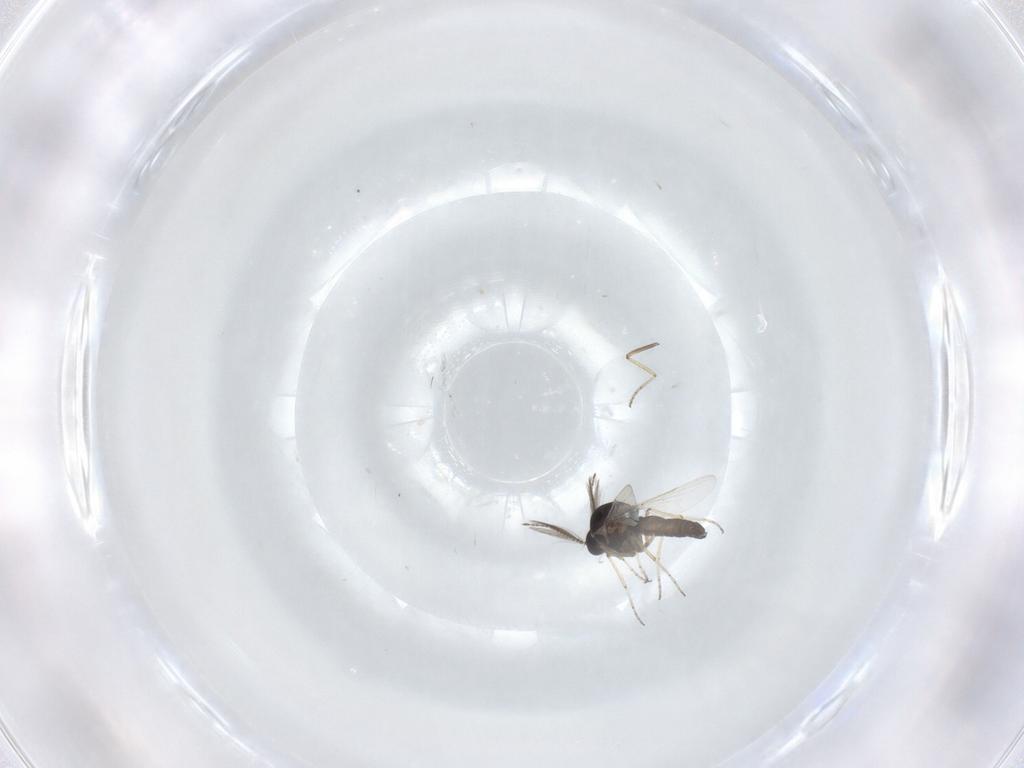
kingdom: Animalia
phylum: Arthropoda
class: Insecta
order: Diptera
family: Ceratopogonidae
